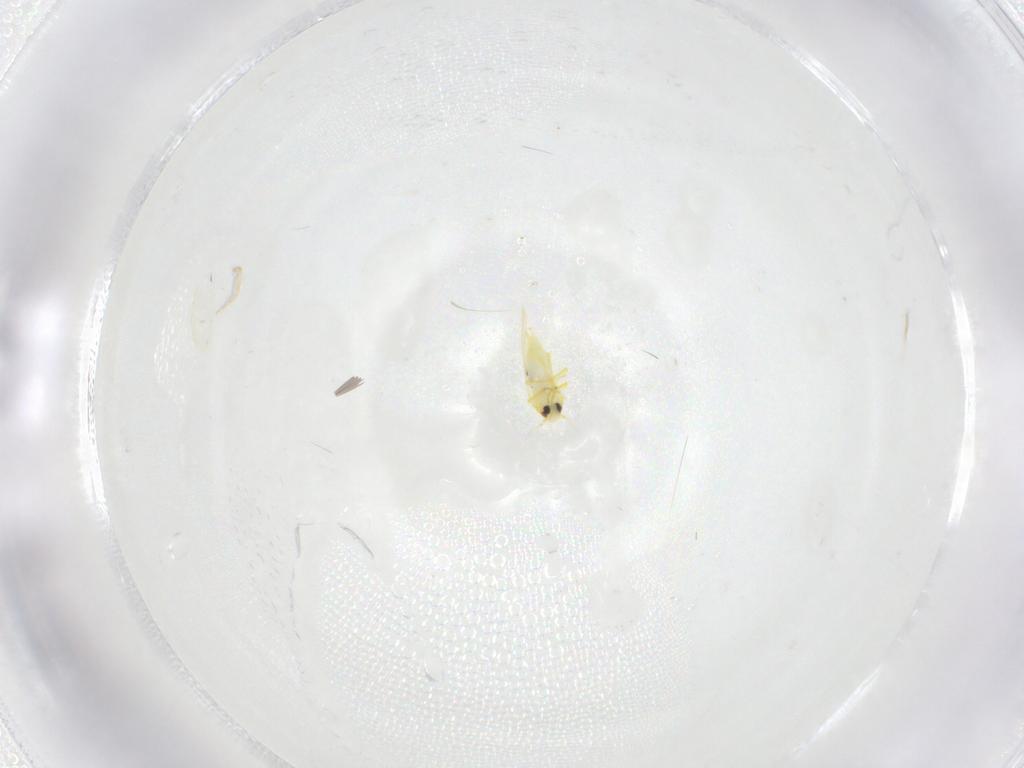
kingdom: Animalia
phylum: Arthropoda
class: Insecta
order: Hemiptera
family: Aleyrodidae
